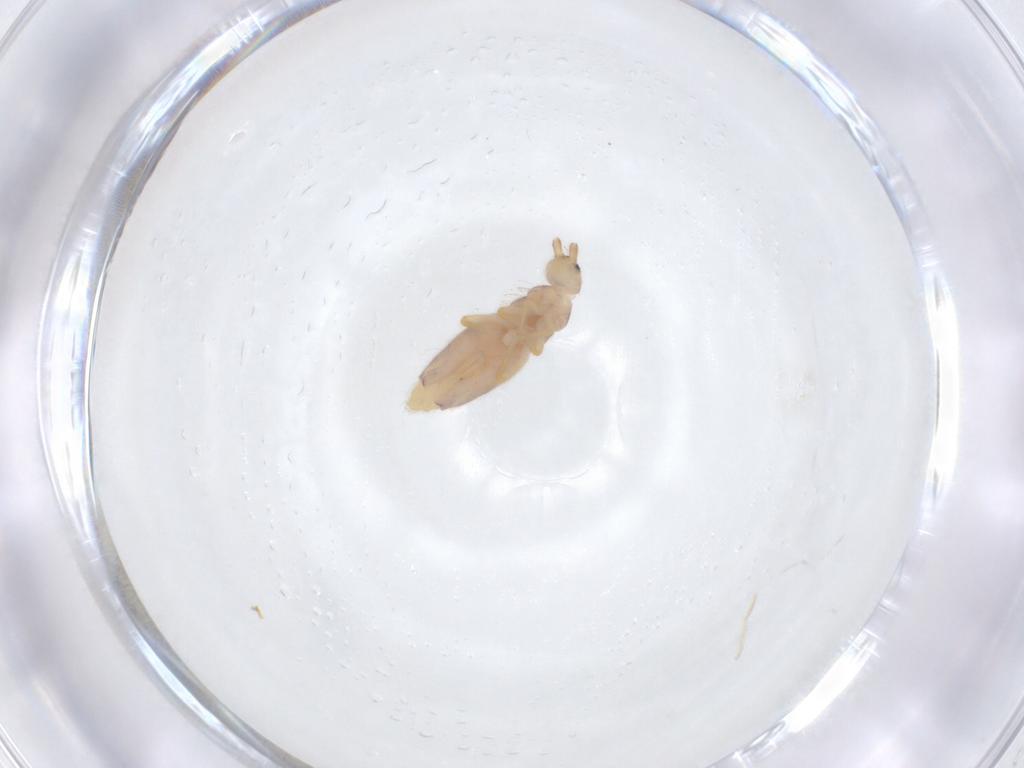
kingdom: Animalia
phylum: Arthropoda
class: Collembola
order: Entomobryomorpha
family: Entomobryidae
